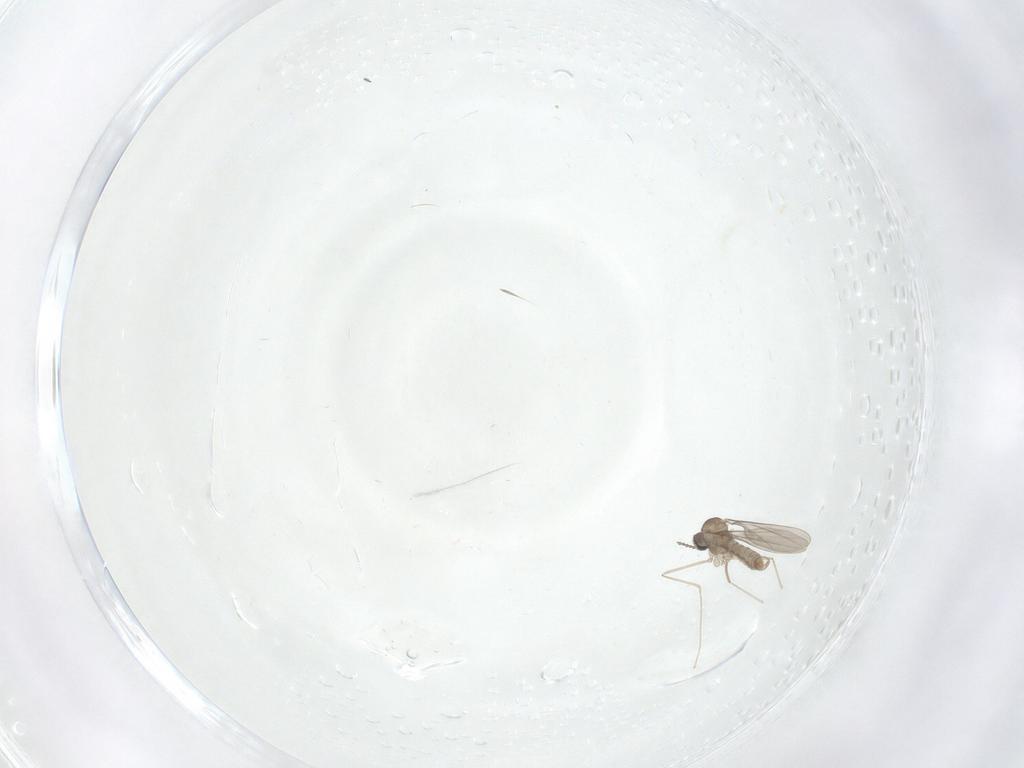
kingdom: Animalia
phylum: Arthropoda
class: Insecta
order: Diptera
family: Cecidomyiidae
